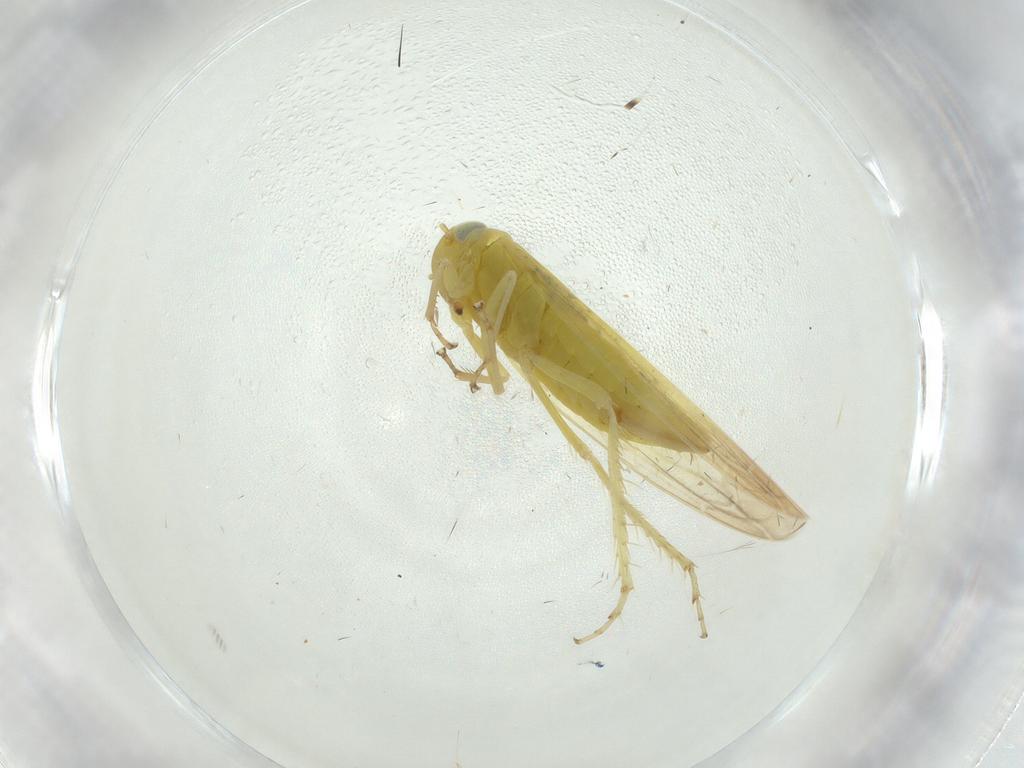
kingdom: Animalia
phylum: Arthropoda
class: Insecta
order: Hemiptera
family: Cicadellidae
